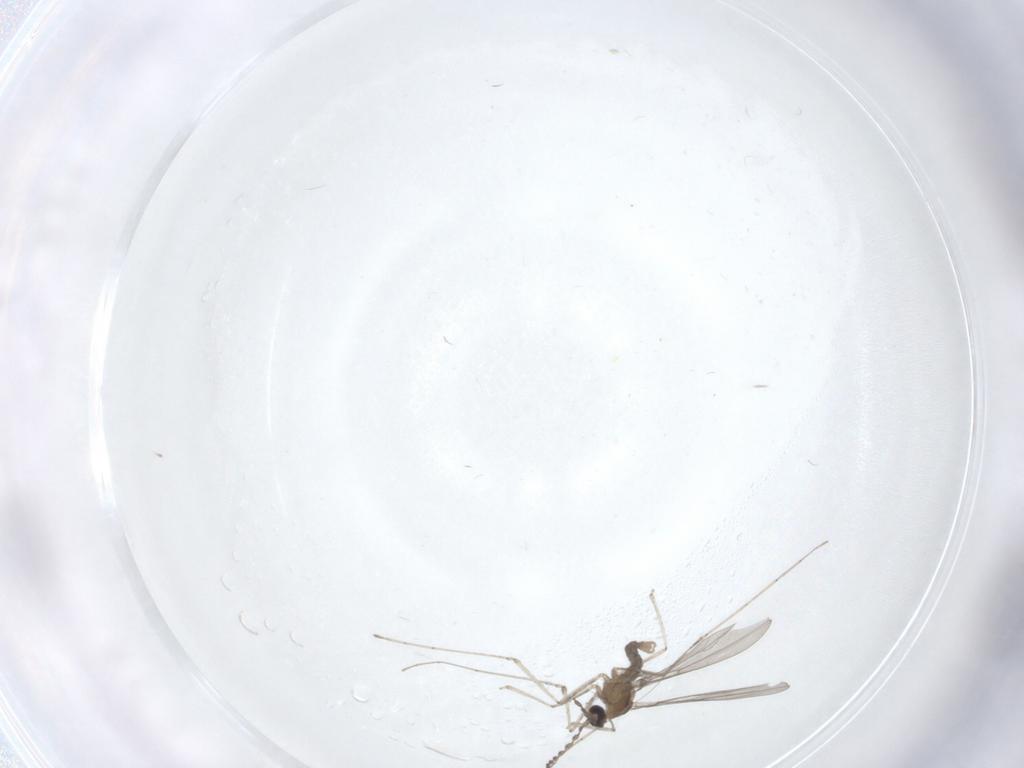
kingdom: Animalia
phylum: Arthropoda
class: Insecta
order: Diptera
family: Cecidomyiidae
